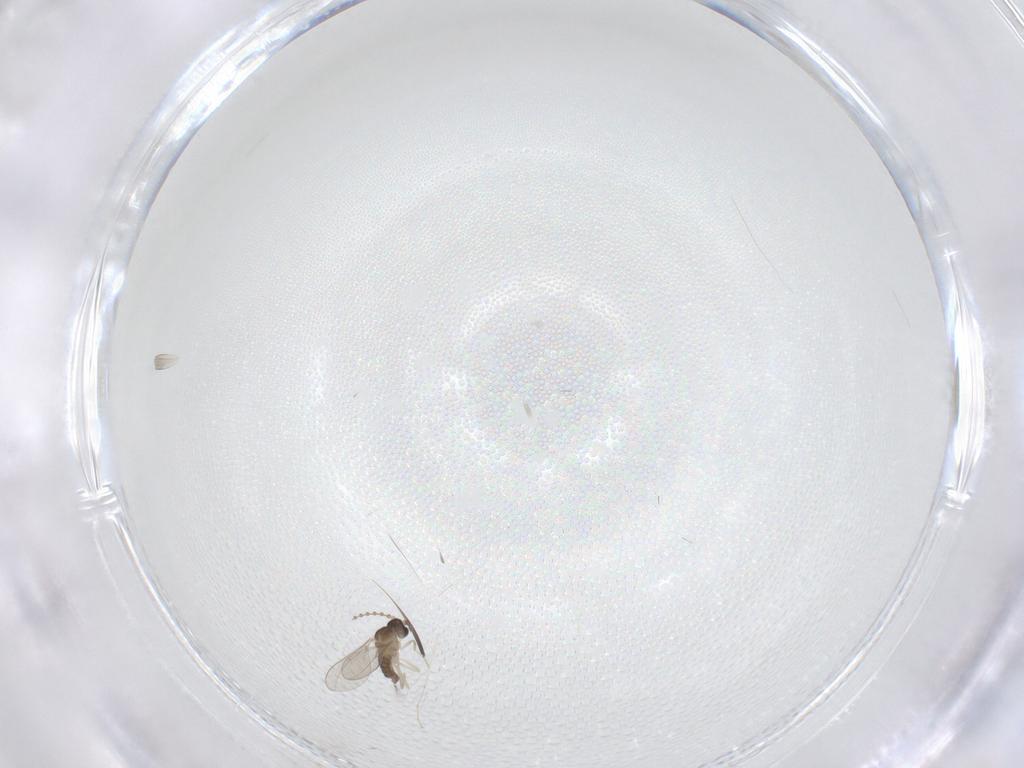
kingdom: Animalia
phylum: Arthropoda
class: Insecta
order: Diptera
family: Cecidomyiidae
